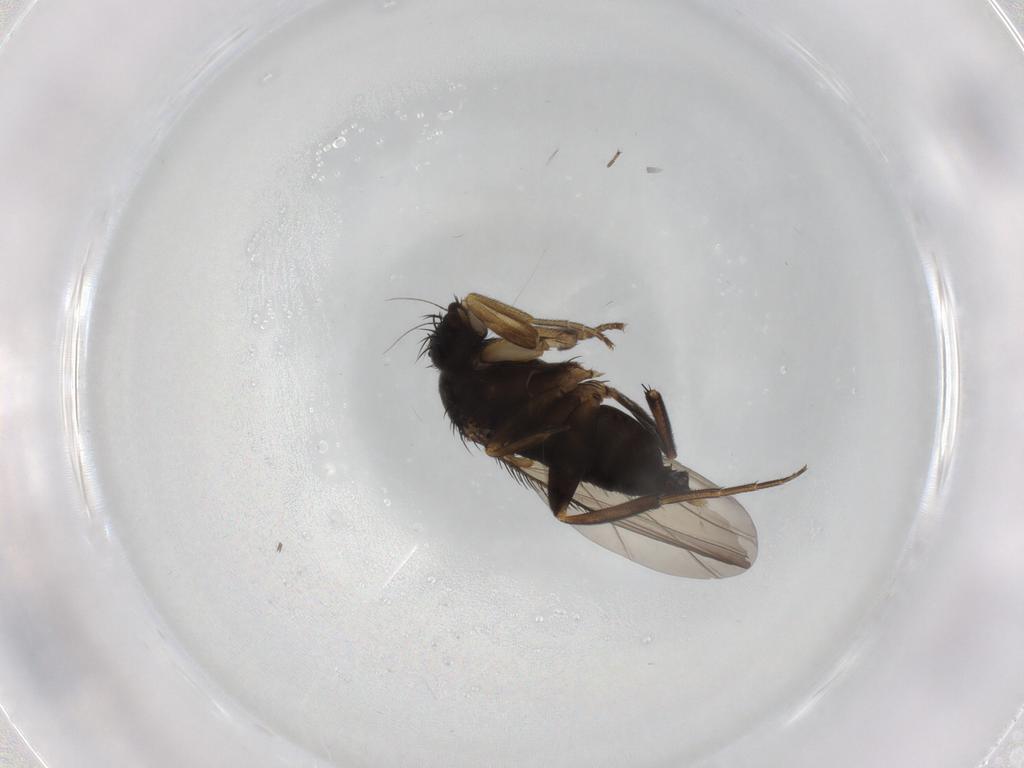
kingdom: Animalia
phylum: Arthropoda
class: Insecta
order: Diptera
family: Phoridae
